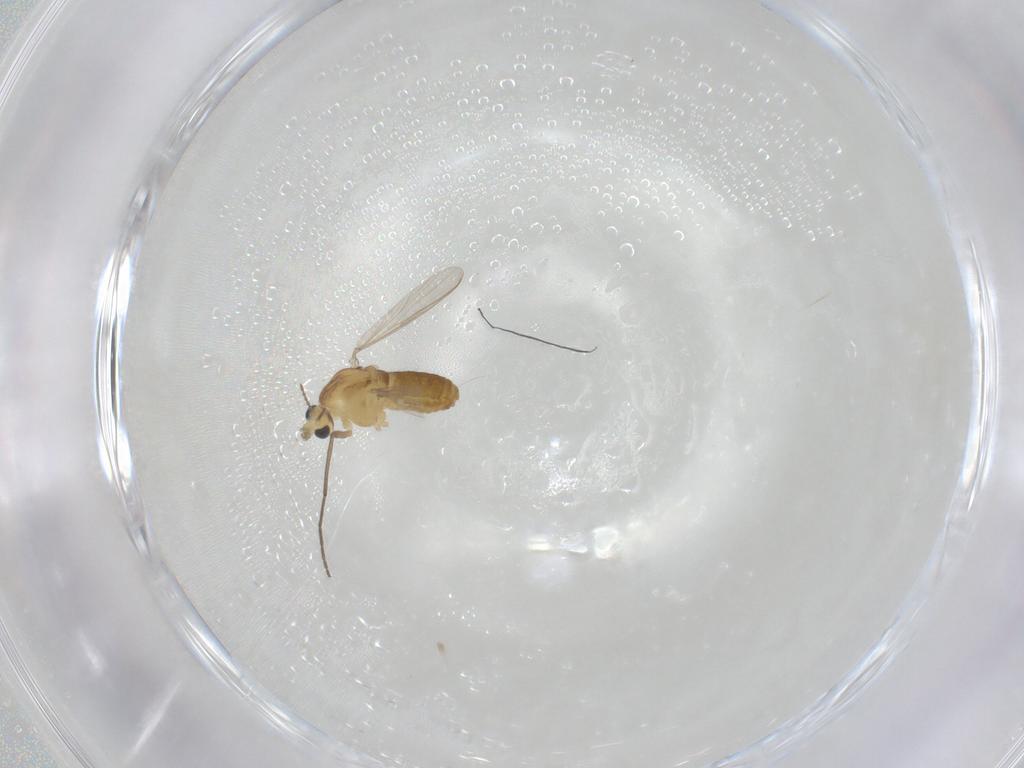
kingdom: Animalia
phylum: Arthropoda
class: Insecta
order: Diptera
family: Chironomidae
